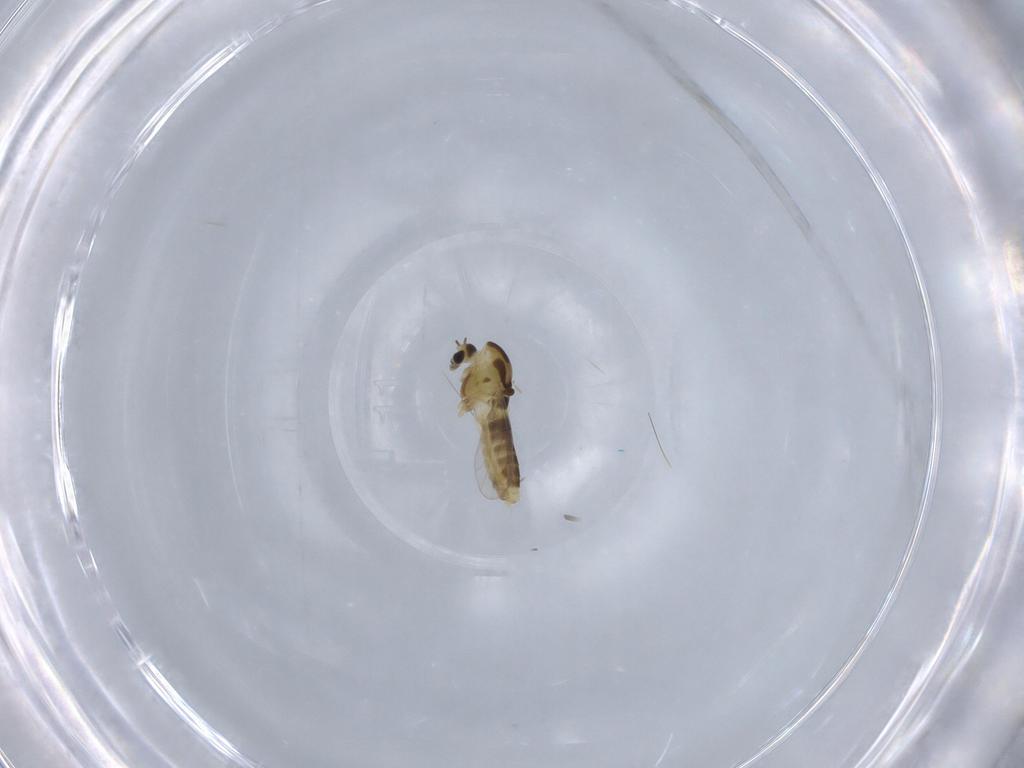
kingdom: Animalia
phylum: Arthropoda
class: Insecta
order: Diptera
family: Chironomidae
